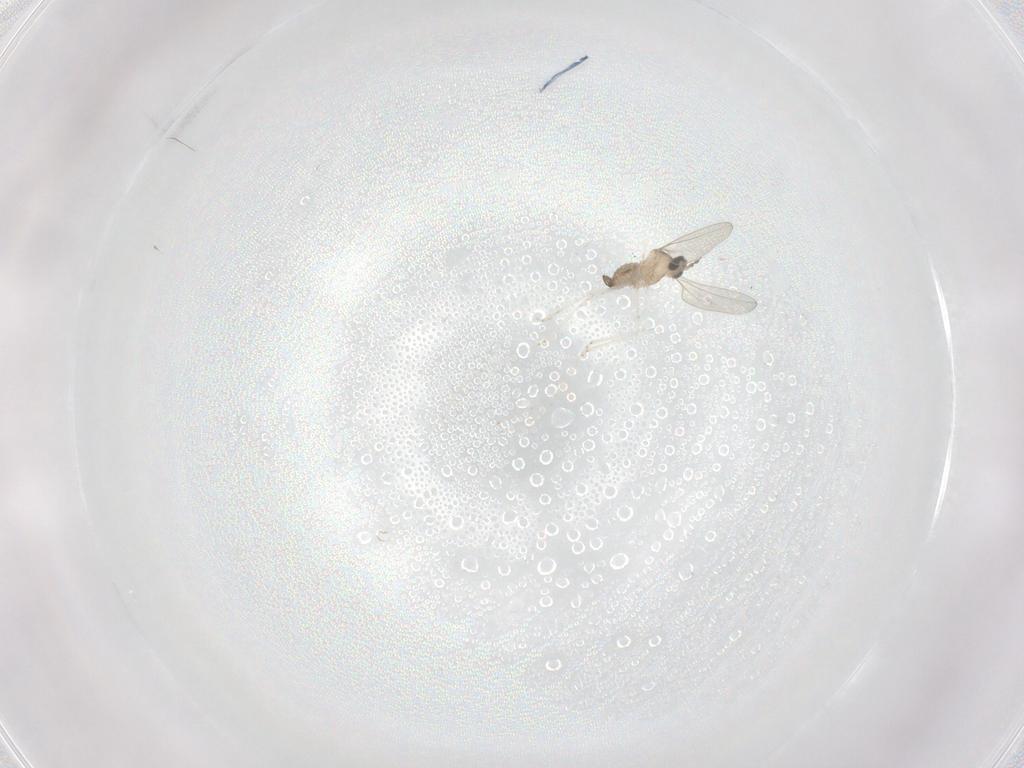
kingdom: Animalia
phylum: Arthropoda
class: Insecta
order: Diptera
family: Cecidomyiidae
